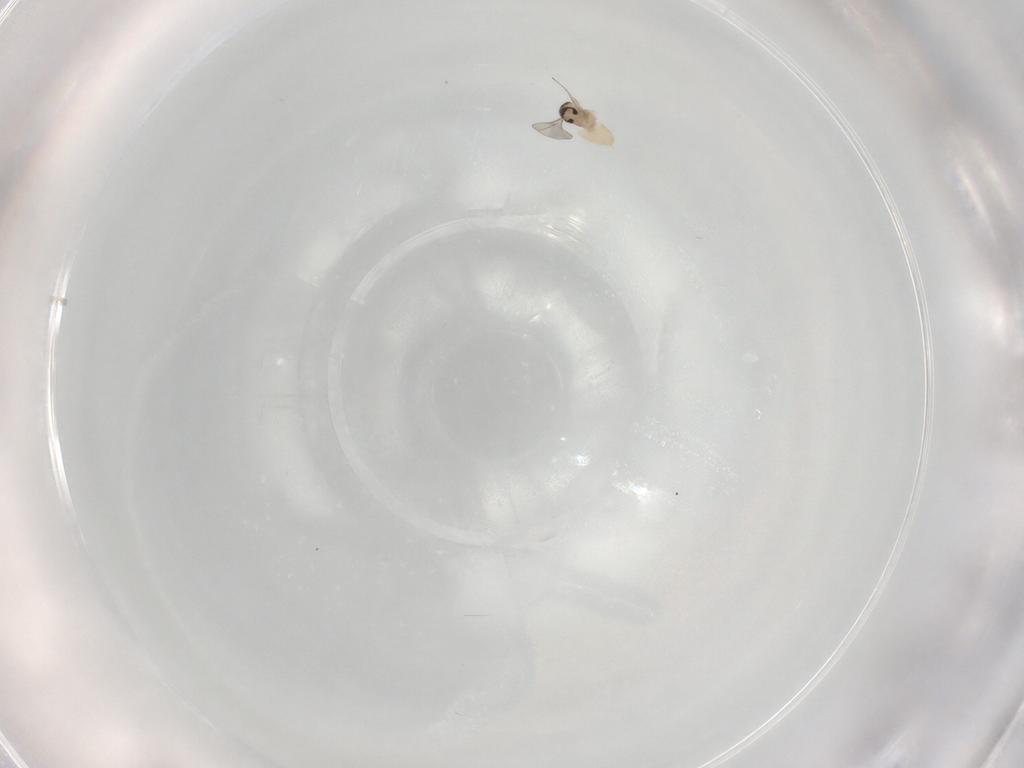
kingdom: Animalia
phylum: Arthropoda
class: Insecta
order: Diptera
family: Cecidomyiidae
